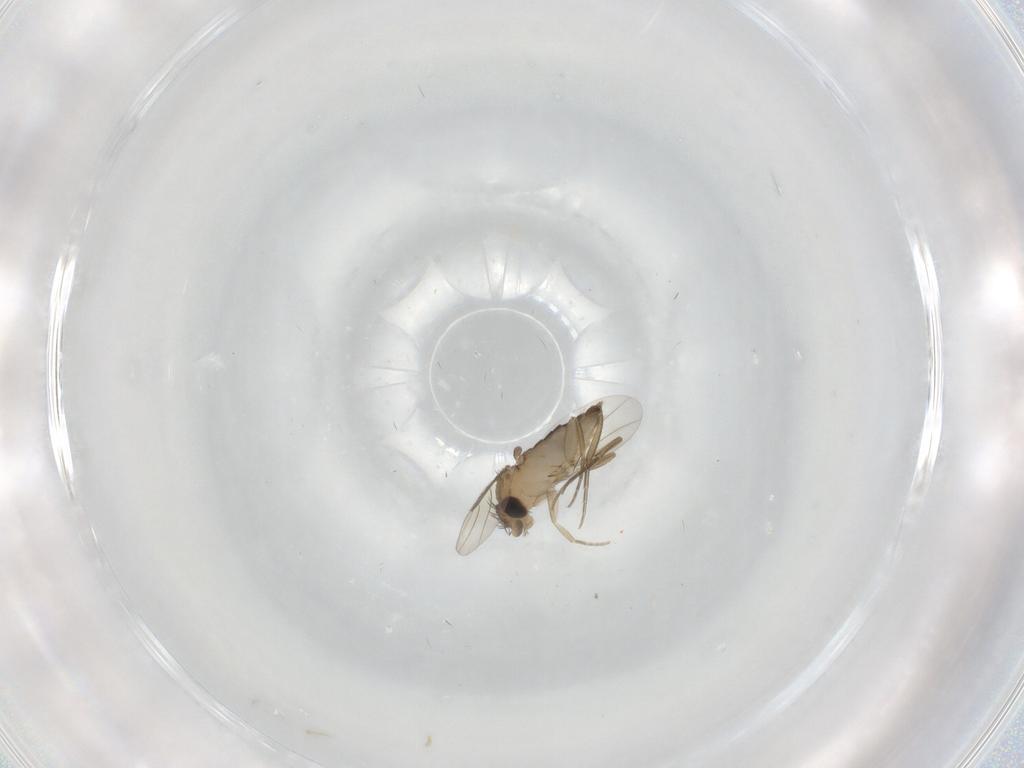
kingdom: Animalia
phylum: Arthropoda
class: Insecta
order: Diptera
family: Phoridae
